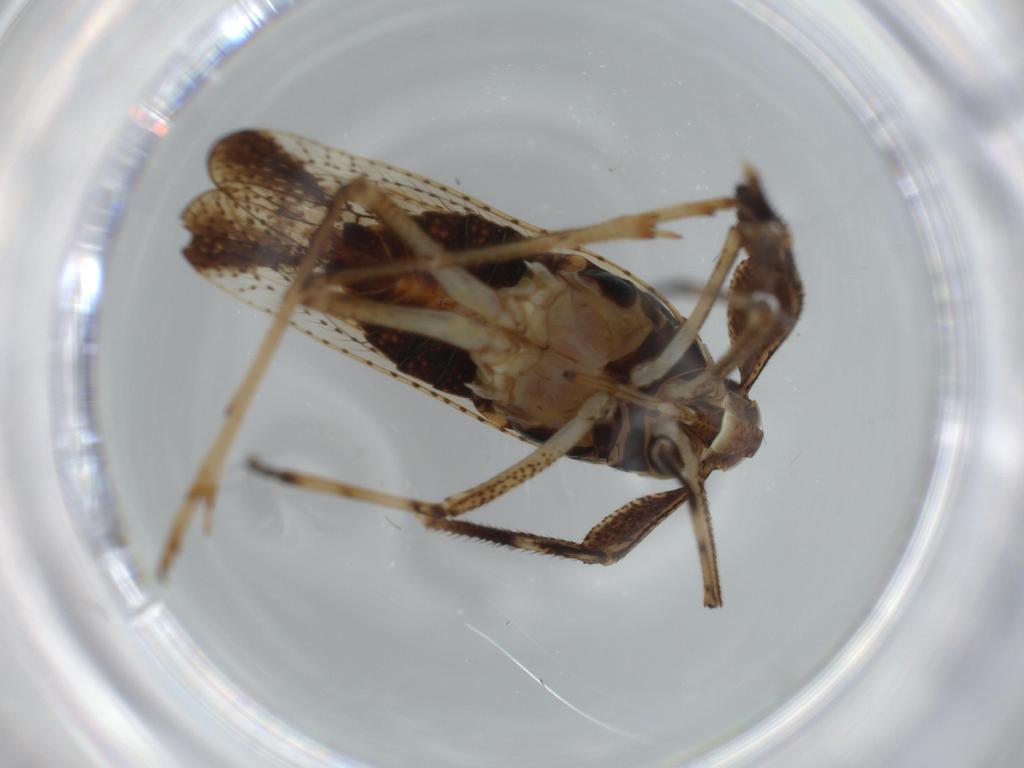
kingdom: Animalia
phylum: Arthropoda
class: Insecta
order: Hemiptera
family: Delphacidae
